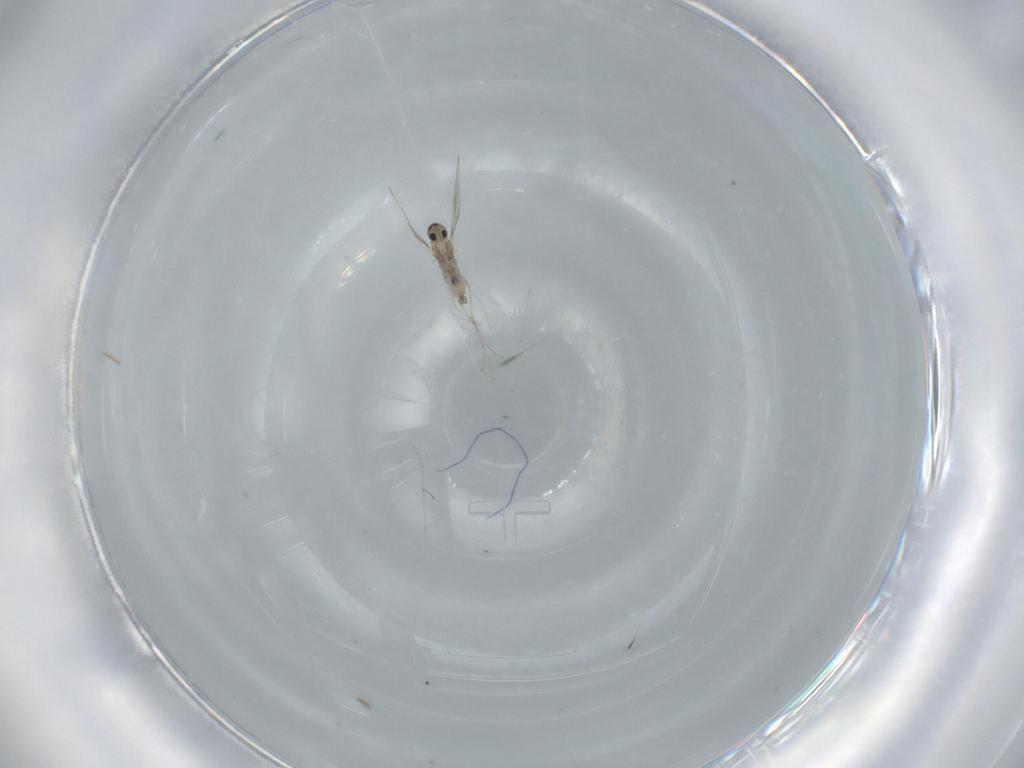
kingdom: Animalia
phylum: Arthropoda
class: Insecta
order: Diptera
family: Cecidomyiidae
